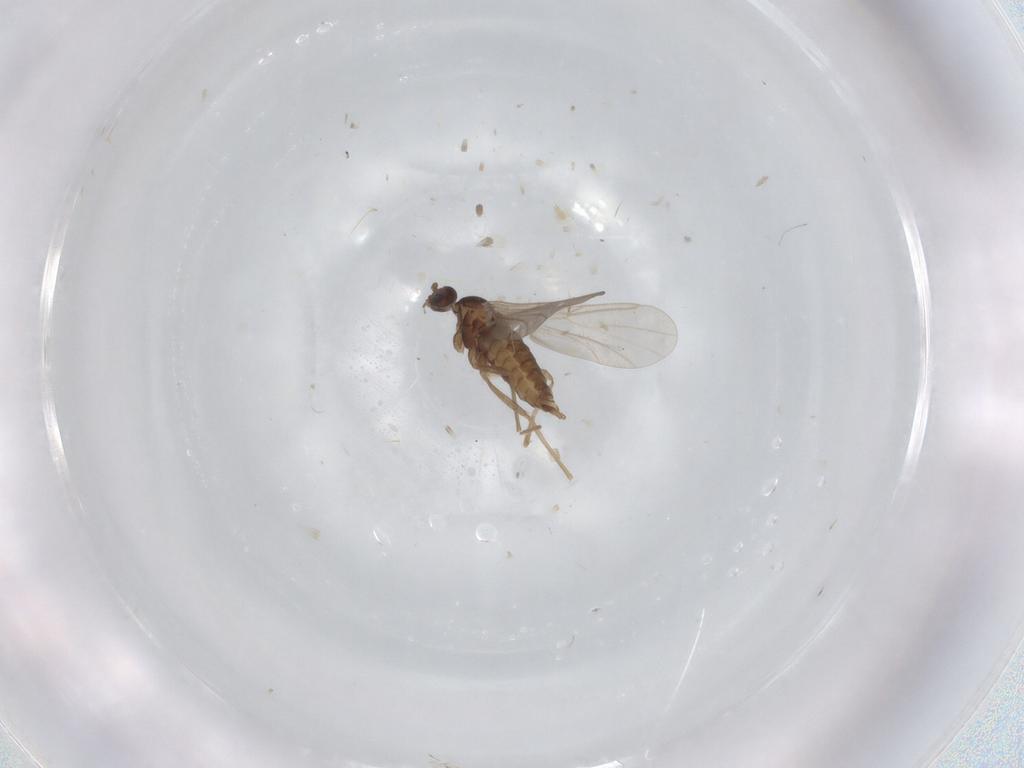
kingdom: Animalia
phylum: Arthropoda
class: Insecta
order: Diptera
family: Cecidomyiidae
